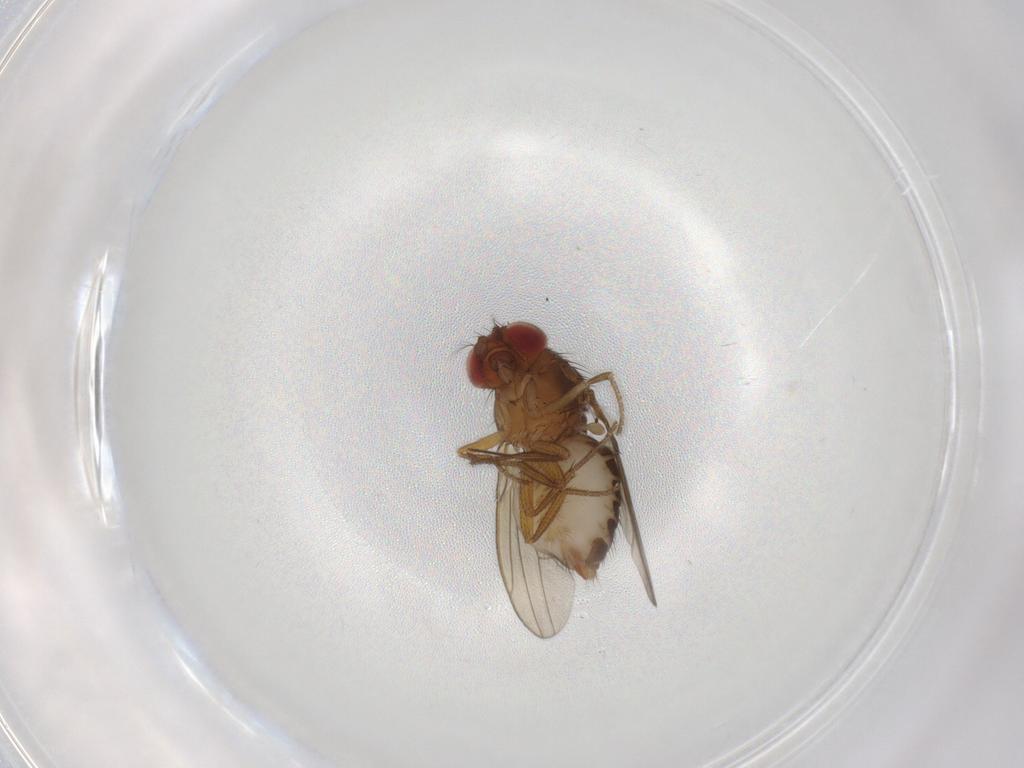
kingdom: Animalia
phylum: Arthropoda
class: Insecta
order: Diptera
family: Drosophilidae
